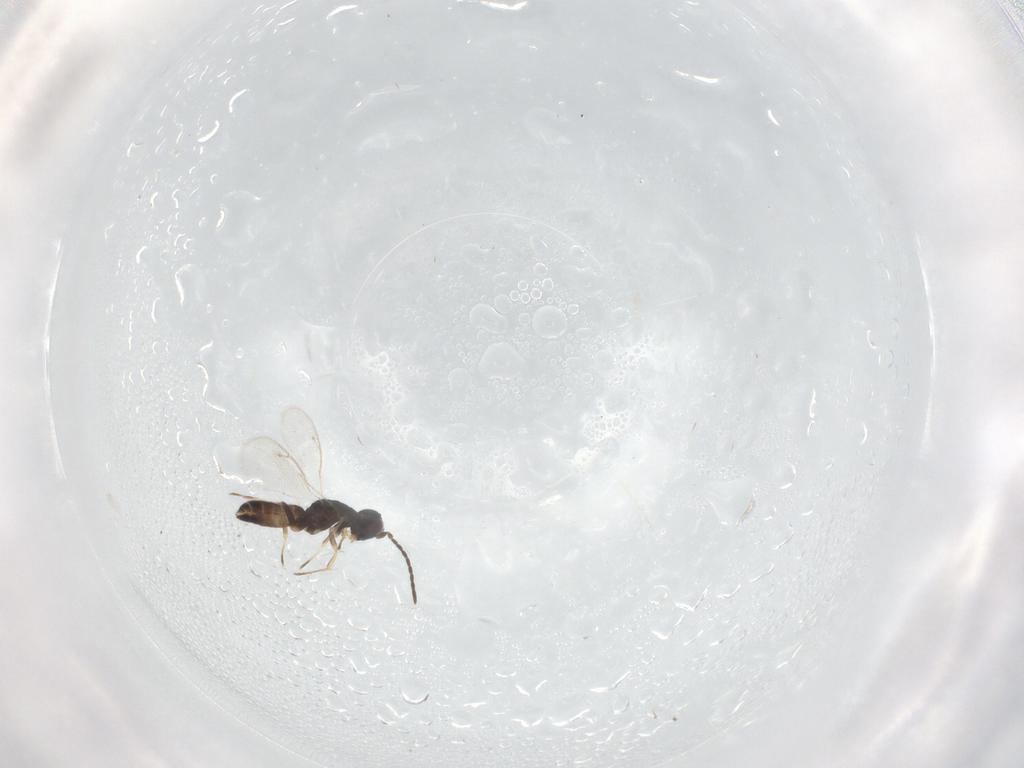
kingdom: Animalia
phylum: Arthropoda
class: Insecta
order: Hymenoptera
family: Eupelmidae
